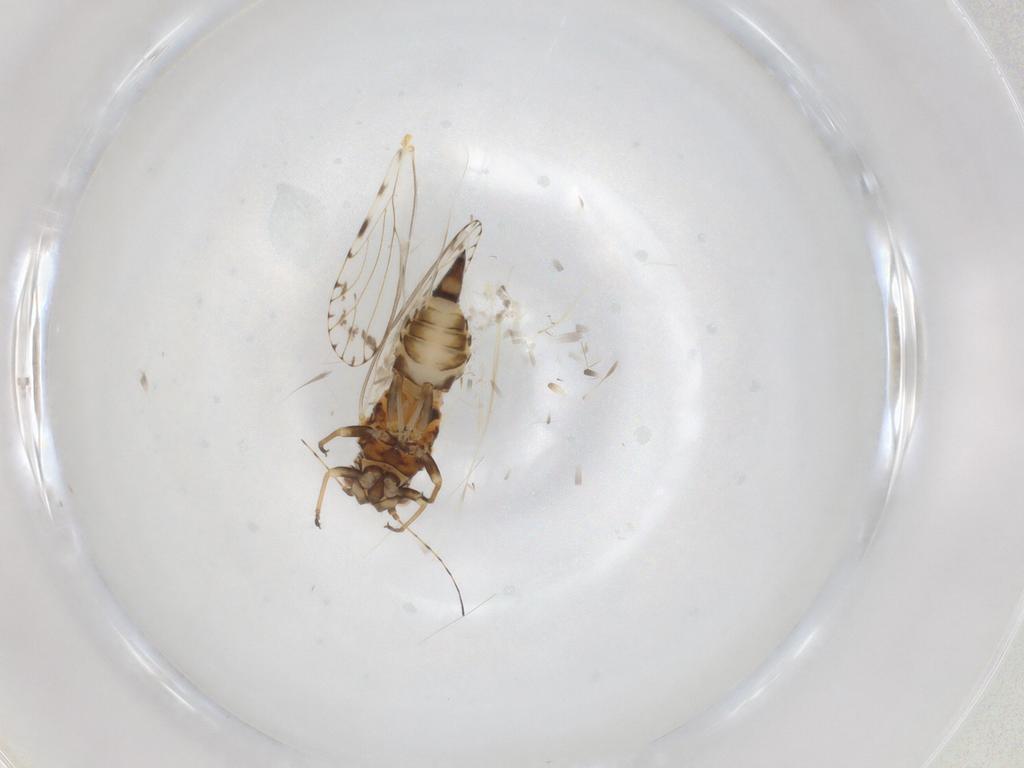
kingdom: Animalia
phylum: Arthropoda
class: Insecta
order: Hemiptera
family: Psyllidae
